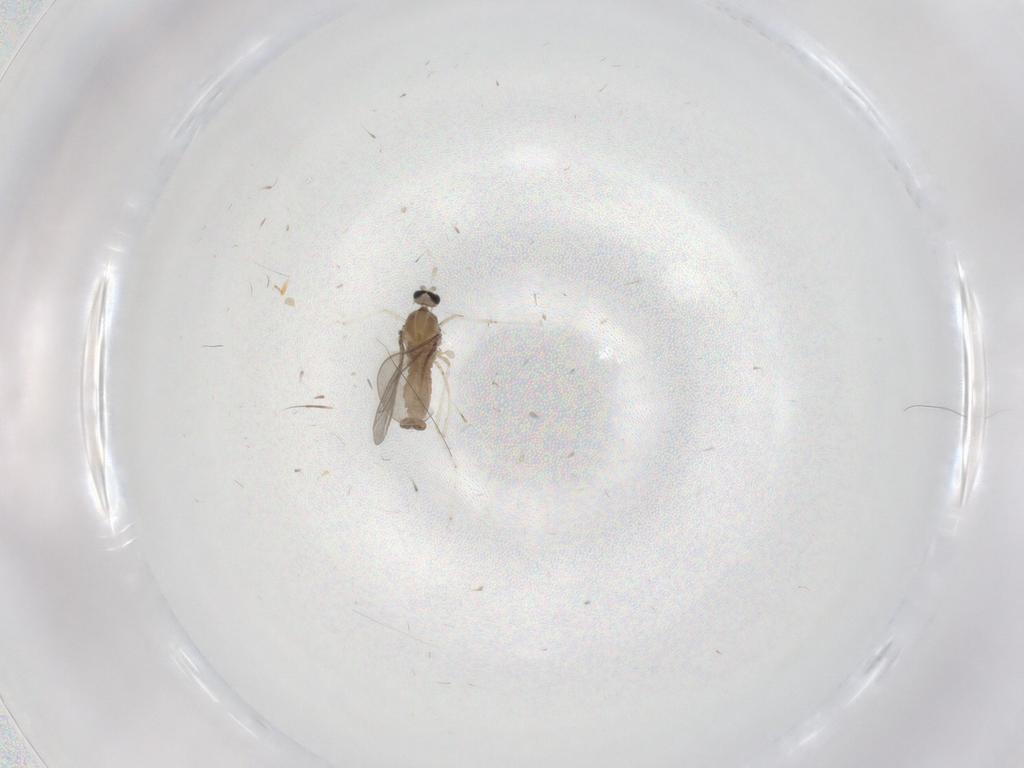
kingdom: Animalia
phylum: Arthropoda
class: Insecta
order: Diptera
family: Cecidomyiidae
